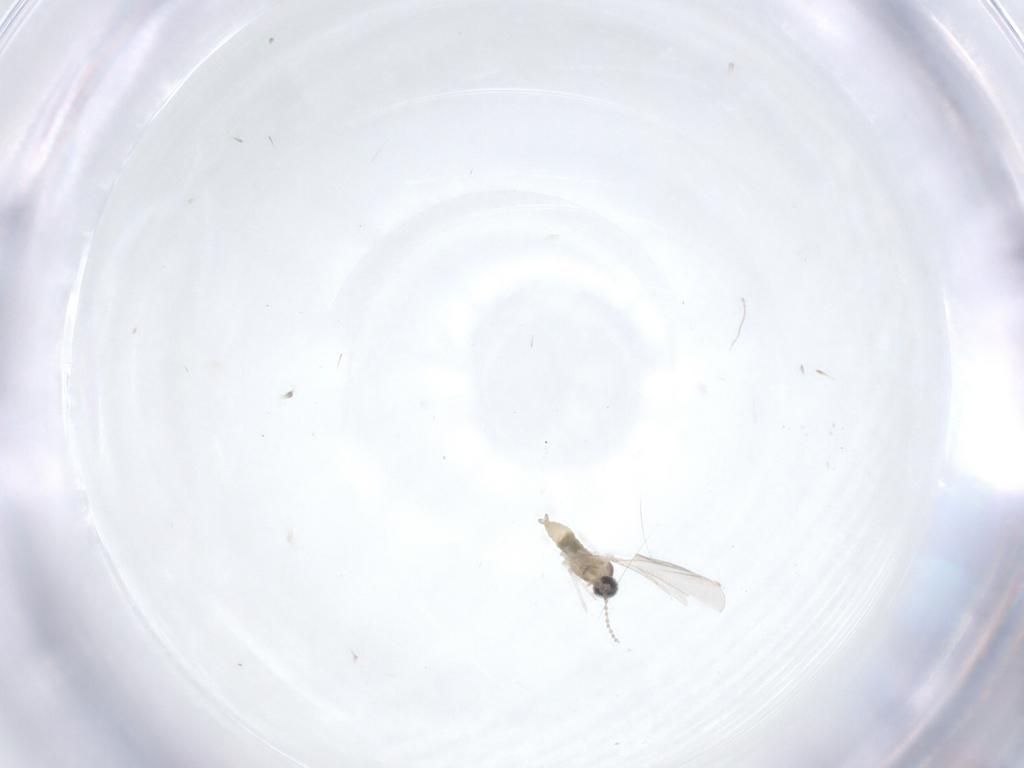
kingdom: Animalia
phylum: Arthropoda
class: Insecta
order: Diptera
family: Cecidomyiidae
